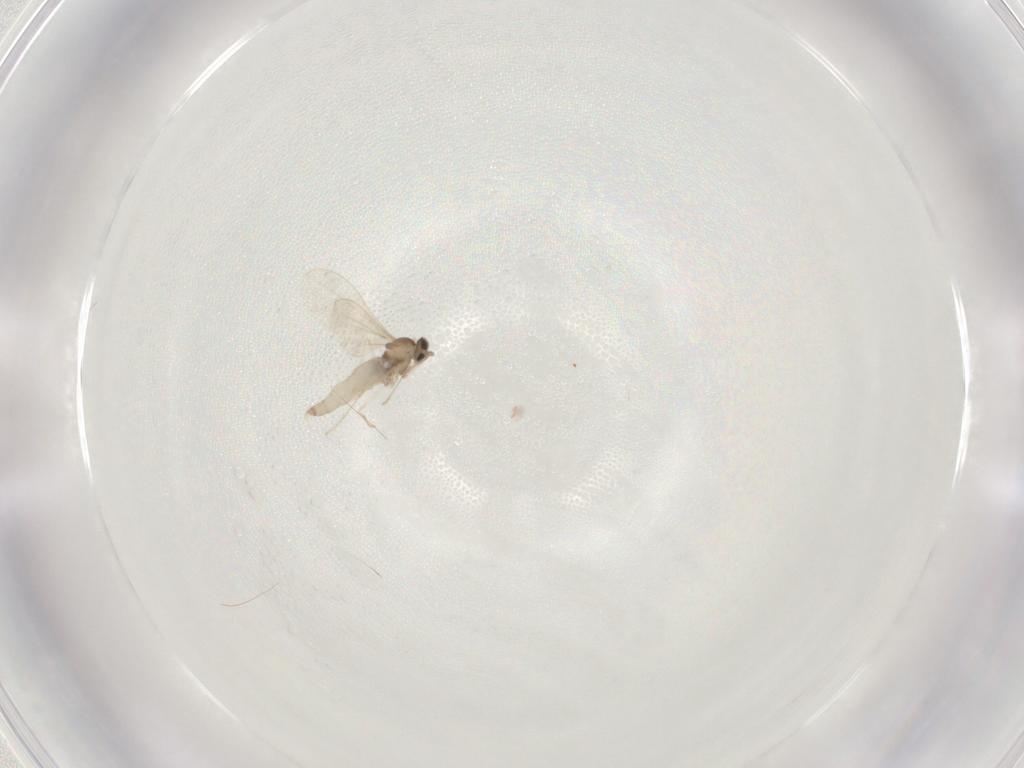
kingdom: Animalia
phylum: Arthropoda
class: Insecta
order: Diptera
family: Cecidomyiidae
